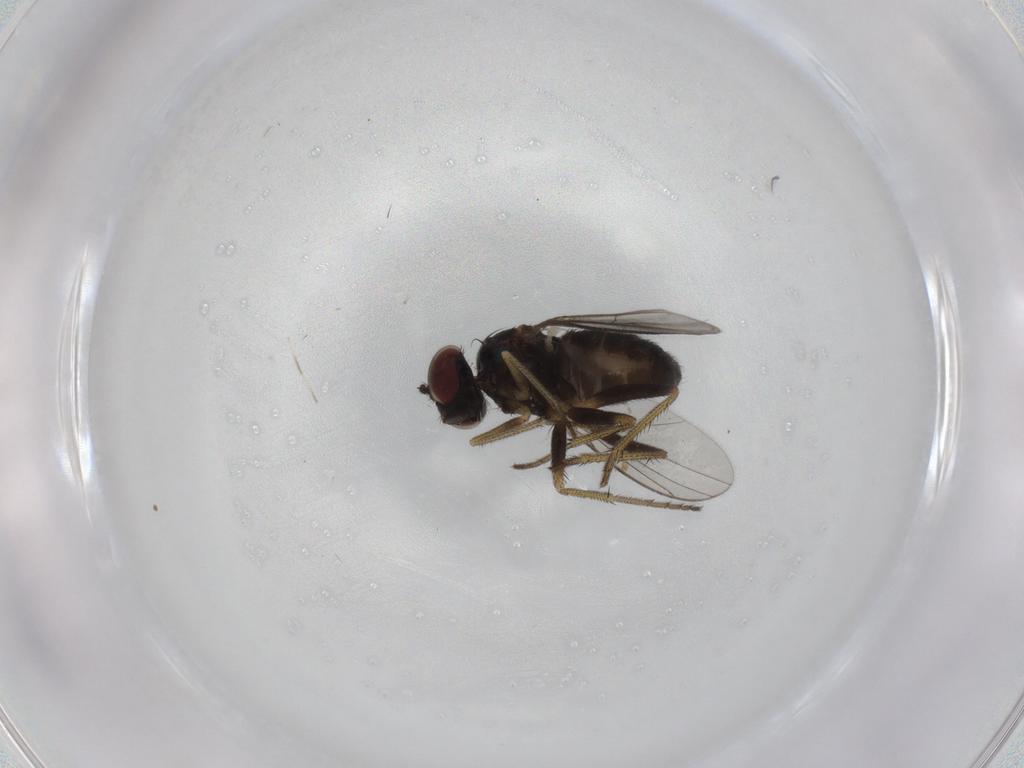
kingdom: Animalia
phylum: Arthropoda
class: Insecta
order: Diptera
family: Dolichopodidae
